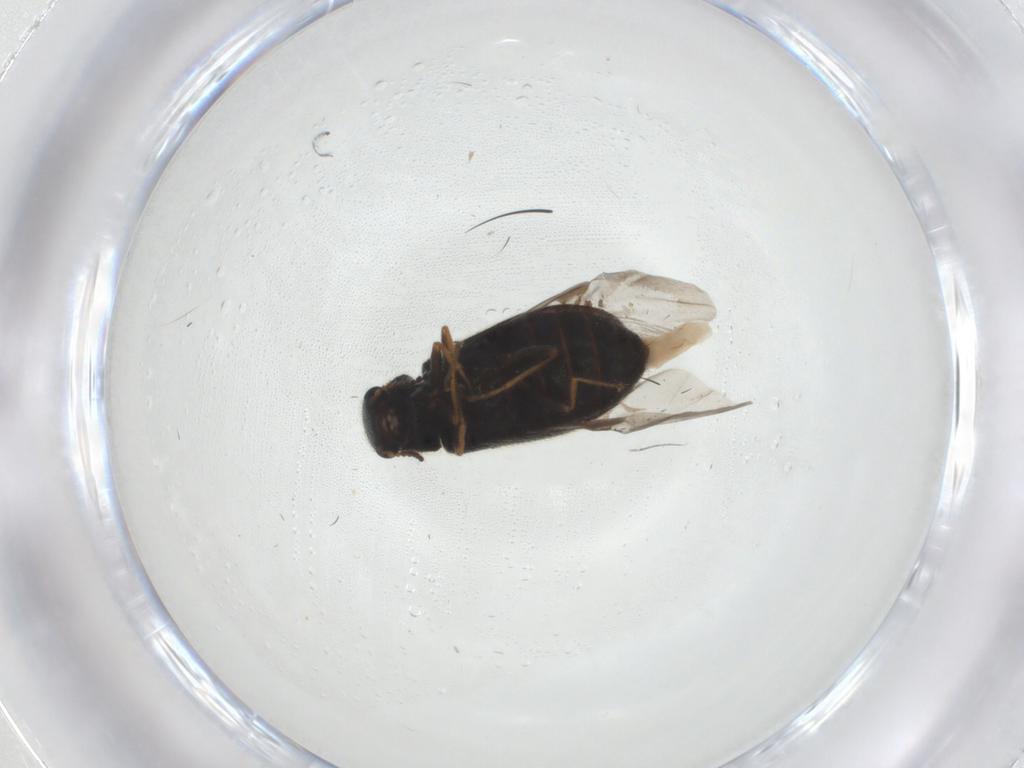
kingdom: Animalia
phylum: Arthropoda
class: Insecta
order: Coleoptera
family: Melyridae
